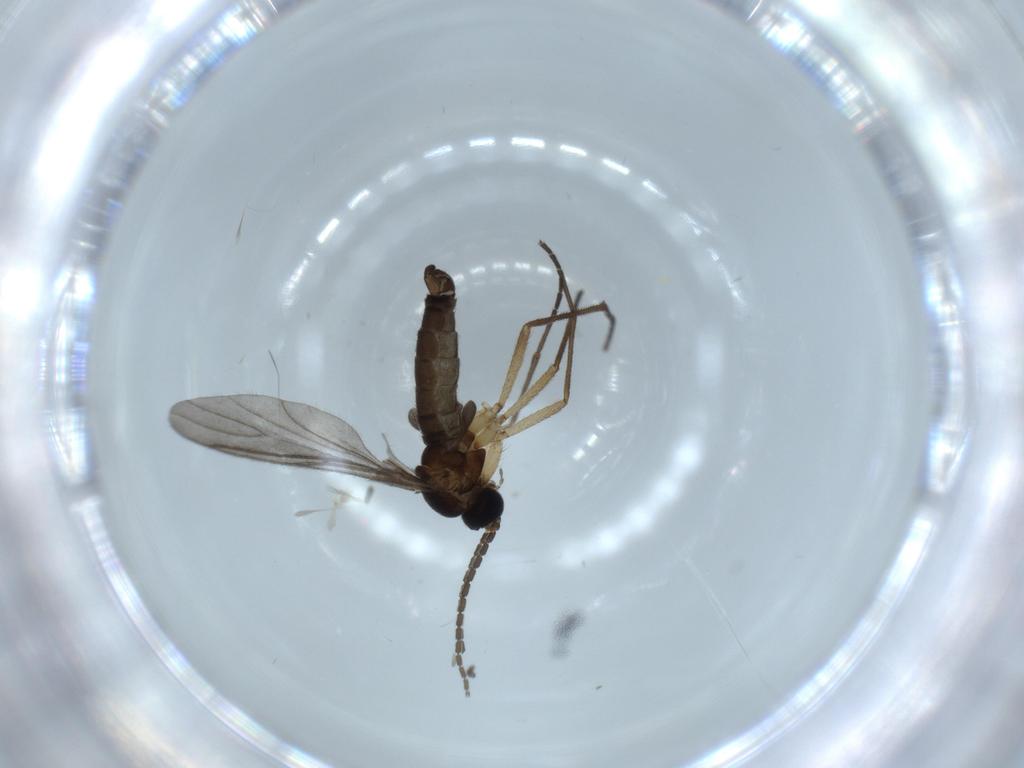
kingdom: Animalia
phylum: Arthropoda
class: Insecta
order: Diptera
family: Sciaridae
